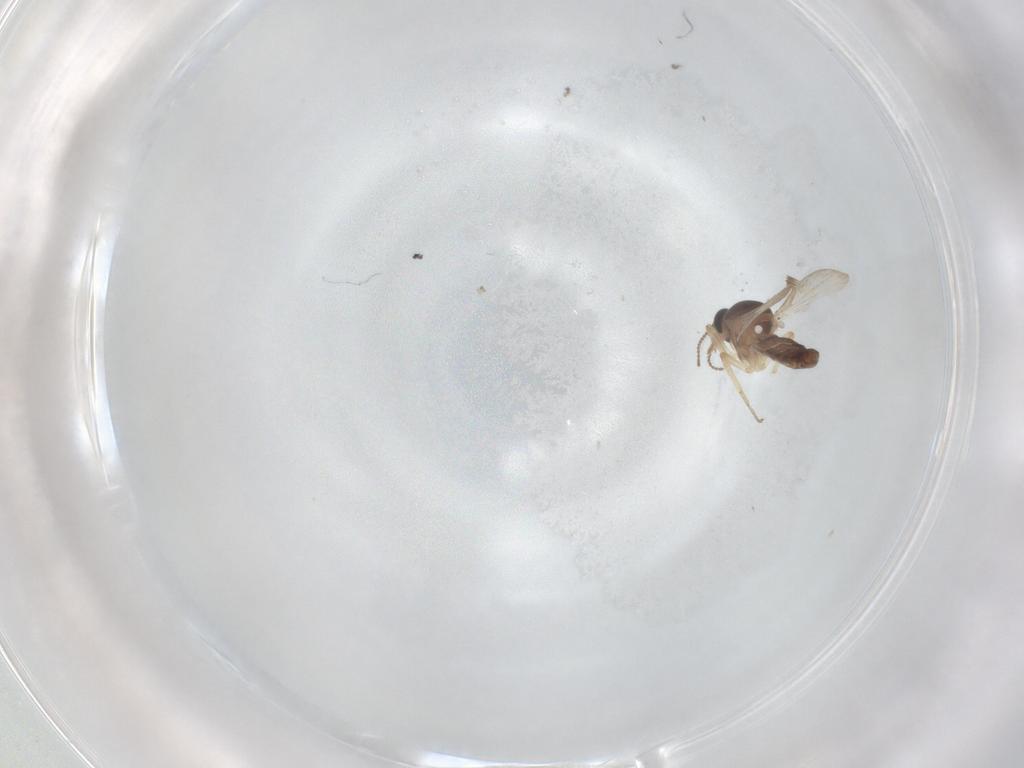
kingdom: Animalia
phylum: Arthropoda
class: Insecta
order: Diptera
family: Ceratopogonidae
